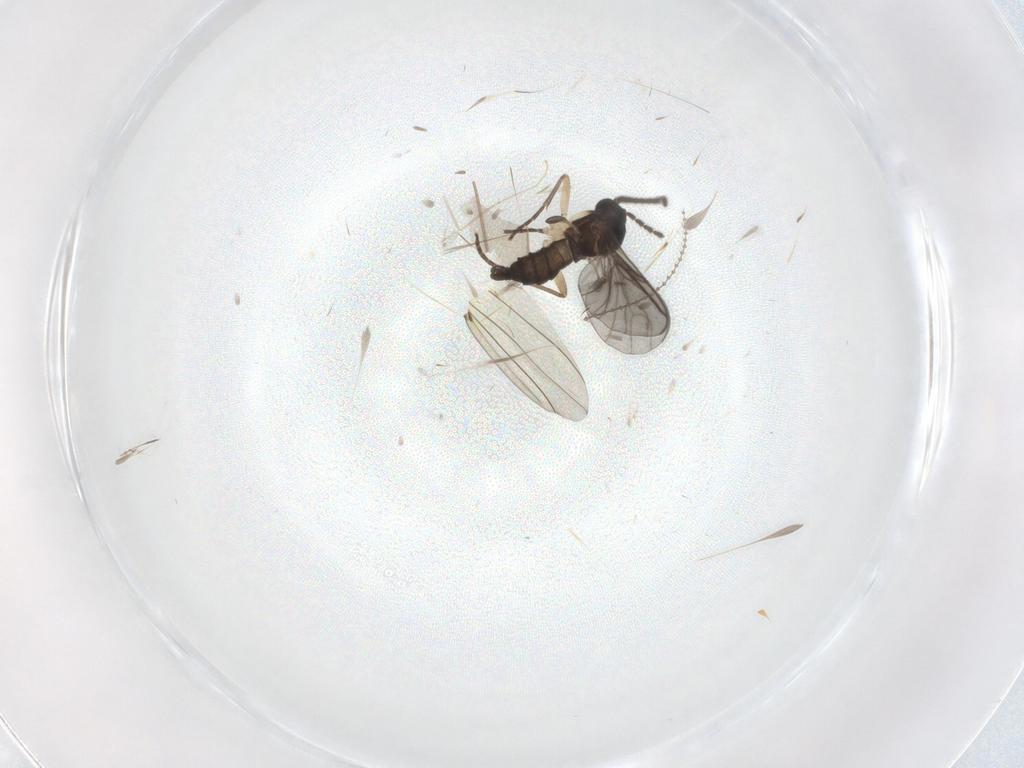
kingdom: Animalia
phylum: Arthropoda
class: Insecta
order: Diptera
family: Cecidomyiidae
